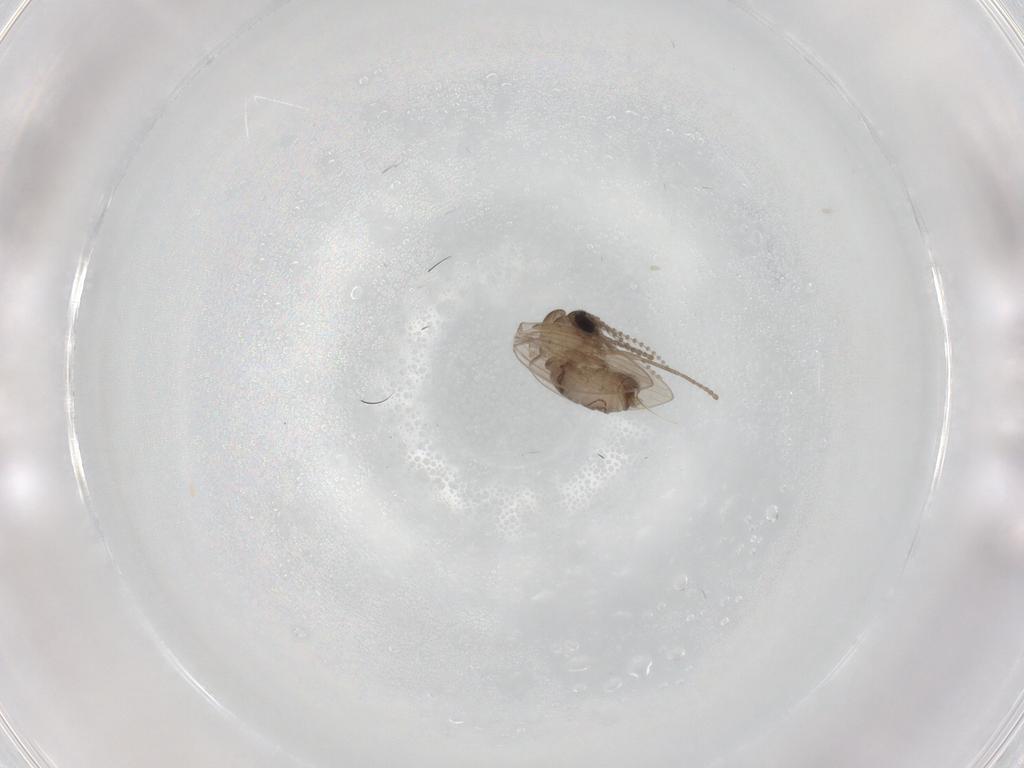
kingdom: Animalia
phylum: Arthropoda
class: Insecta
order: Diptera
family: Psychodidae
